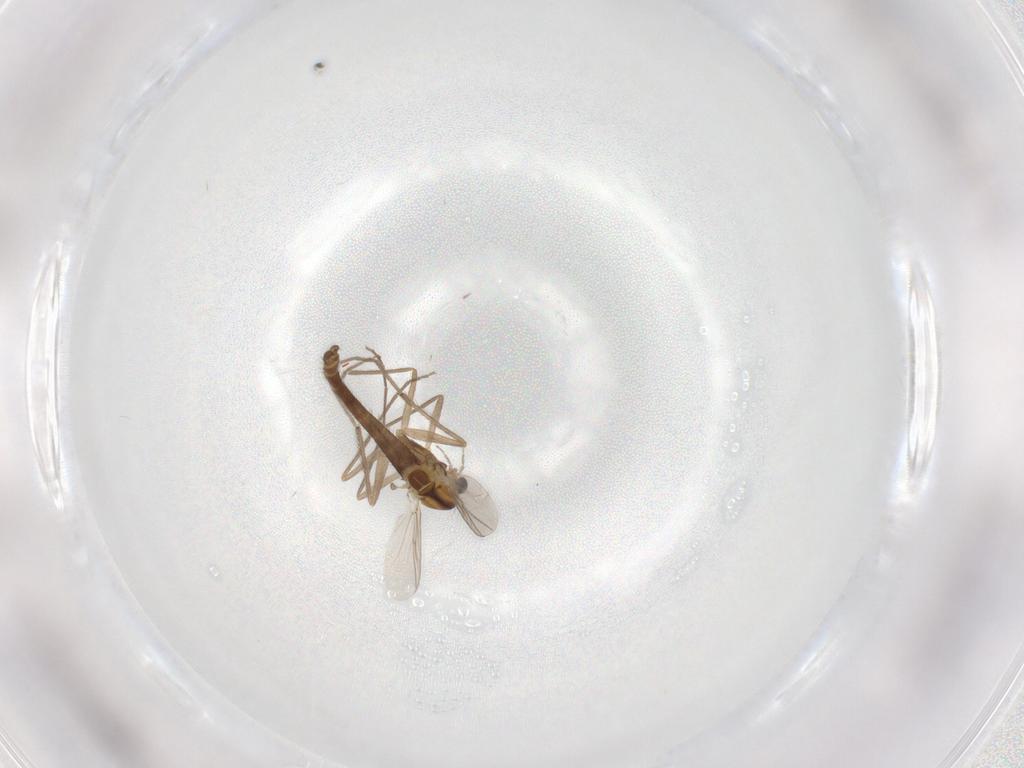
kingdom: Animalia
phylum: Arthropoda
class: Insecta
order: Diptera
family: Chironomidae
